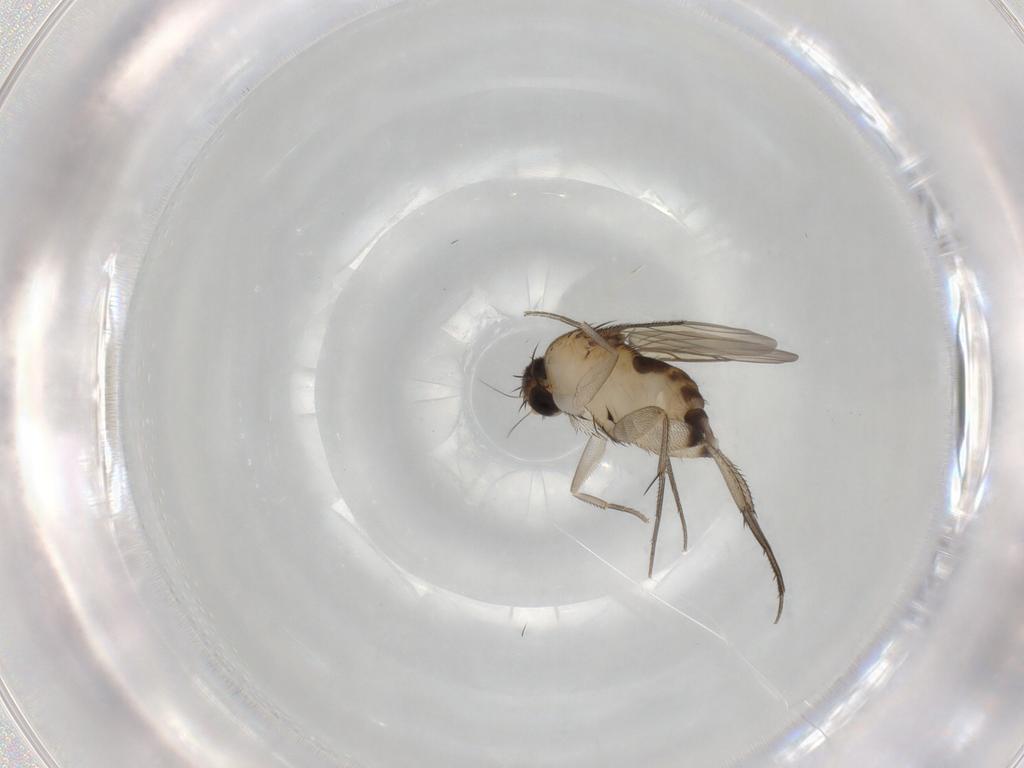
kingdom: Animalia
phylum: Arthropoda
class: Insecta
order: Diptera
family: Phoridae
